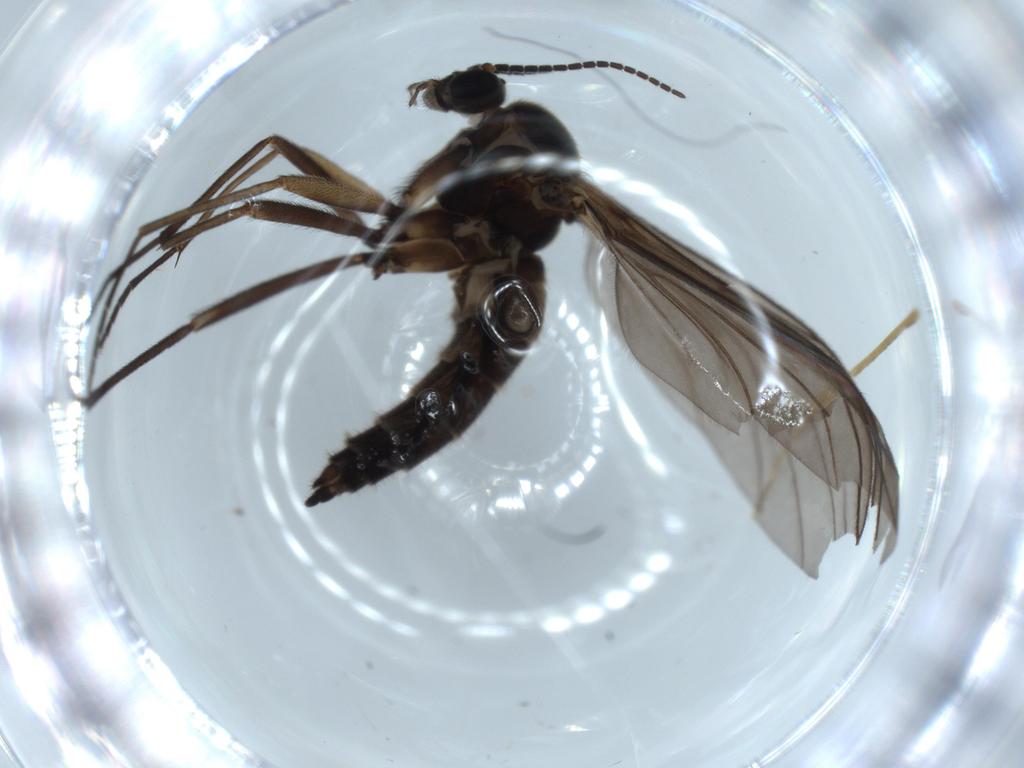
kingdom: Animalia
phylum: Arthropoda
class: Insecta
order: Diptera
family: Sciaridae
